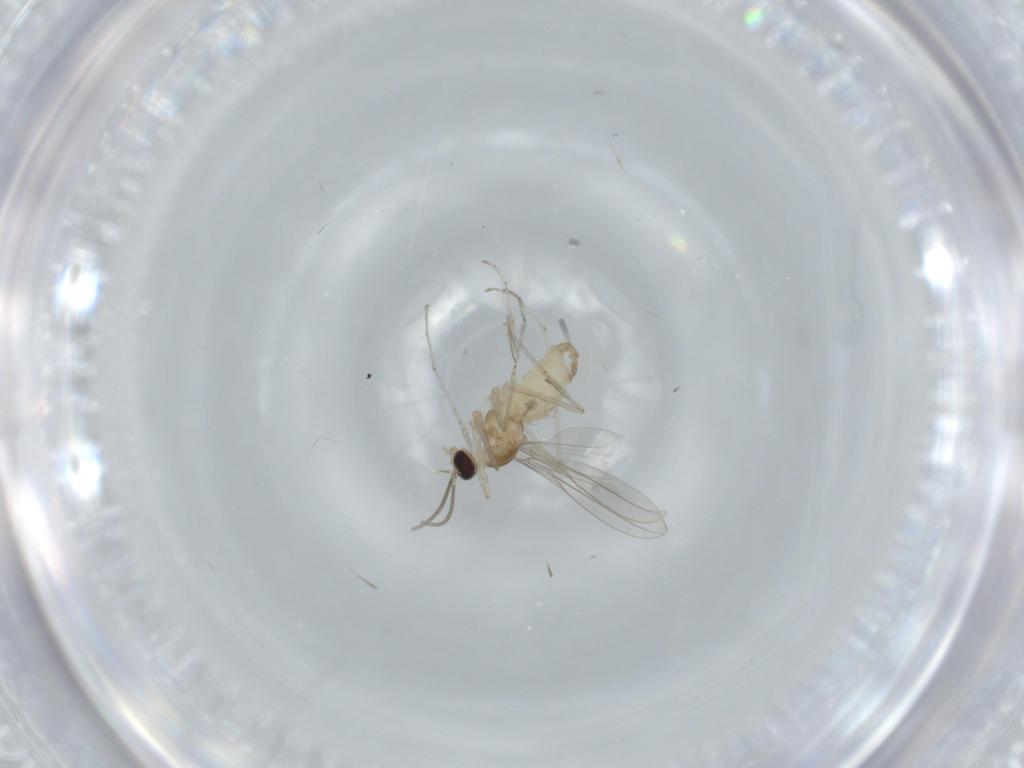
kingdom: Animalia
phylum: Arthropoda
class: Insecta
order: Diptera
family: Cecidomyiidae
